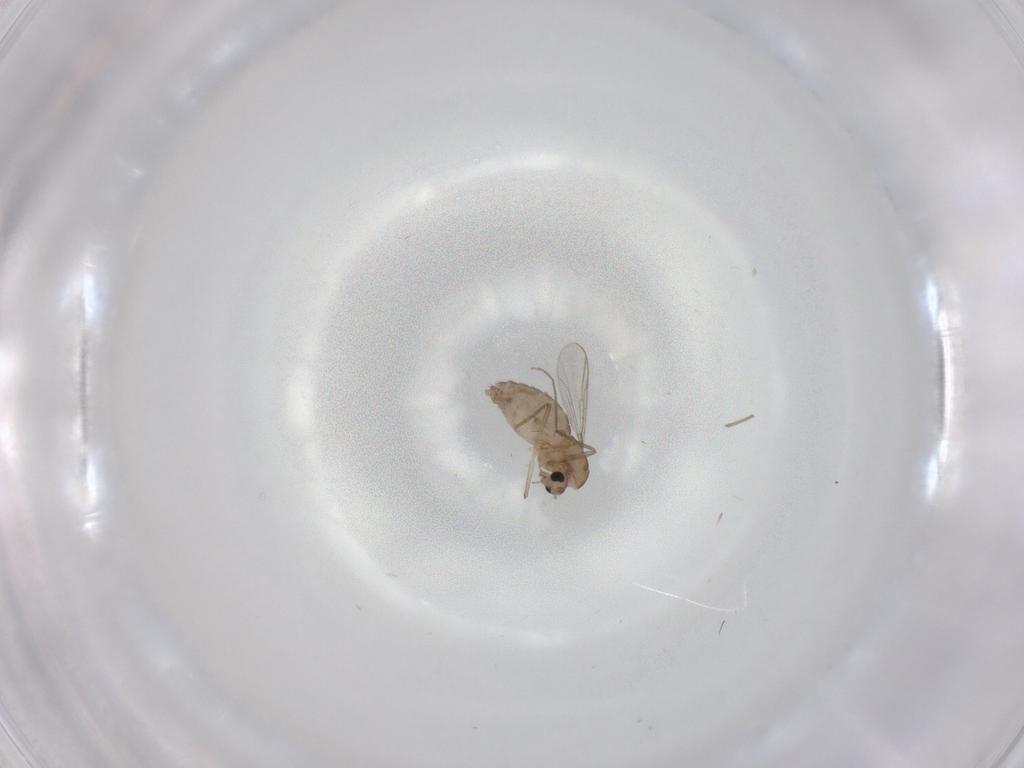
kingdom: Animalia
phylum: Arthropoda
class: Insecta
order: Diptera
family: Chironomidae
